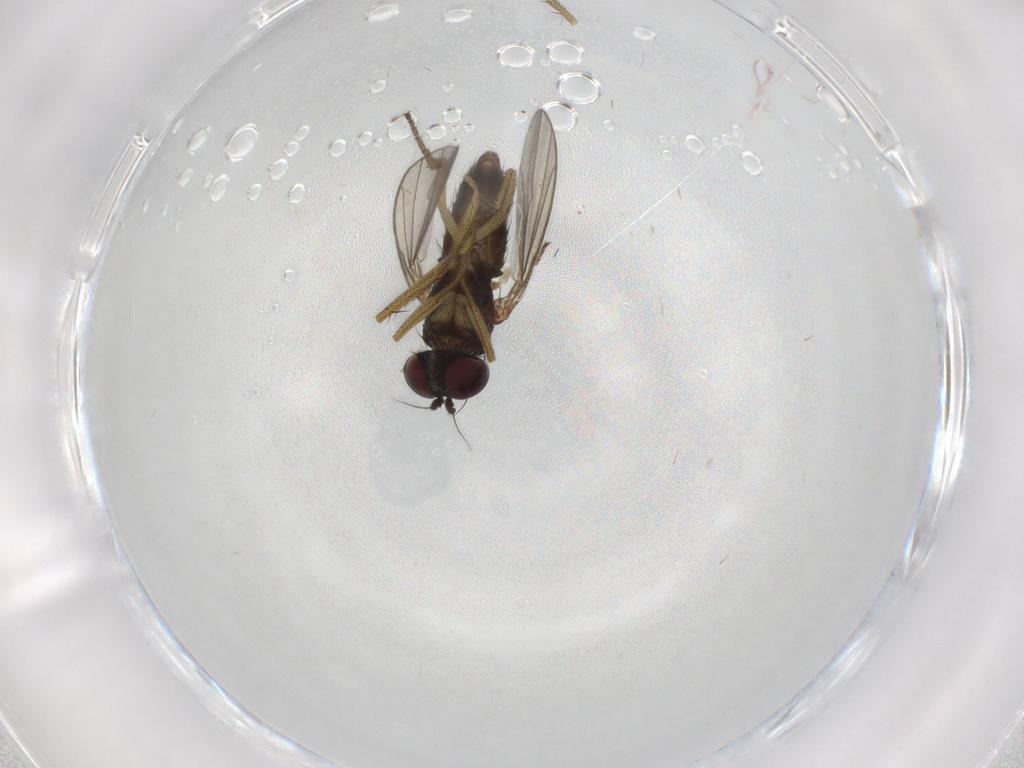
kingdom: Animalia
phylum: Arthropoda
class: Insecta
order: Diptera
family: Dolichopodidae
